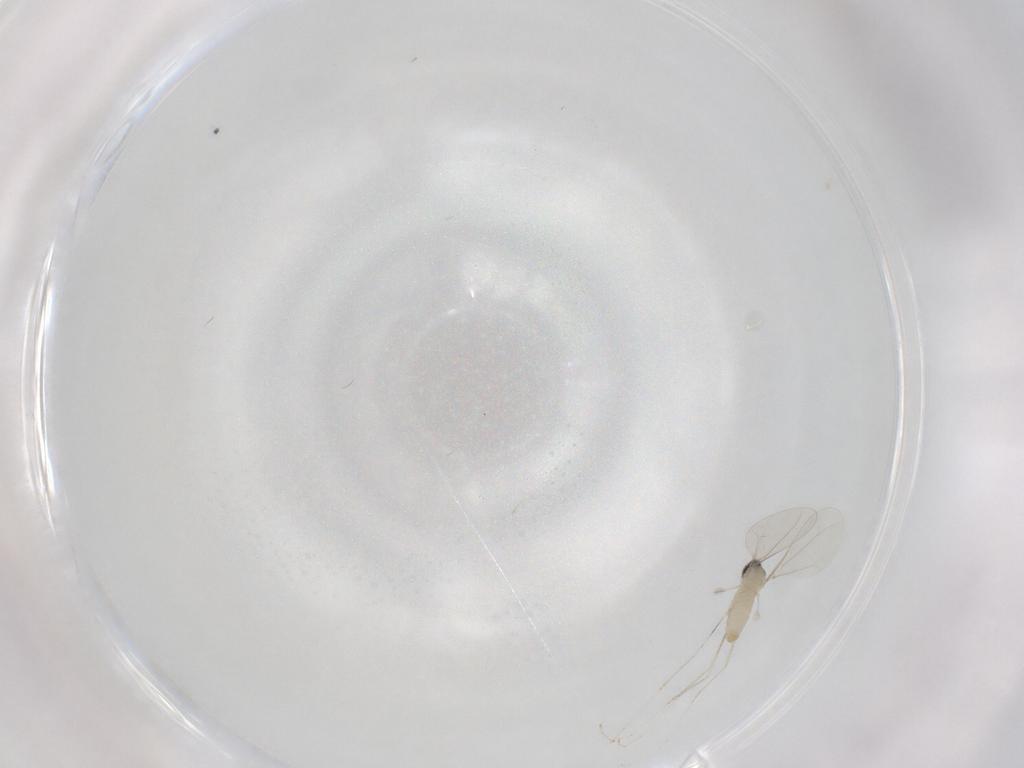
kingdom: Animalia
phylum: Arthropoda
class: Insecta
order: Diptera
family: Cecidomyiidae
